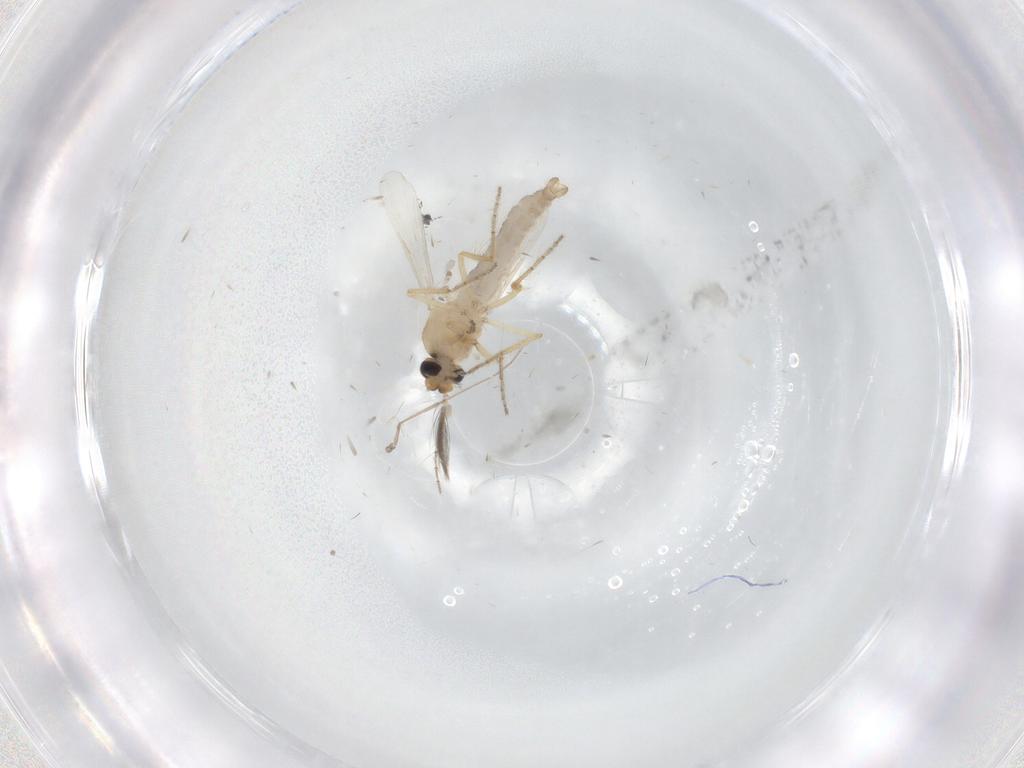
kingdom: Animalia
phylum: Arthropoda
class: Insecta
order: Diptera
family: Ceratopogonidae
